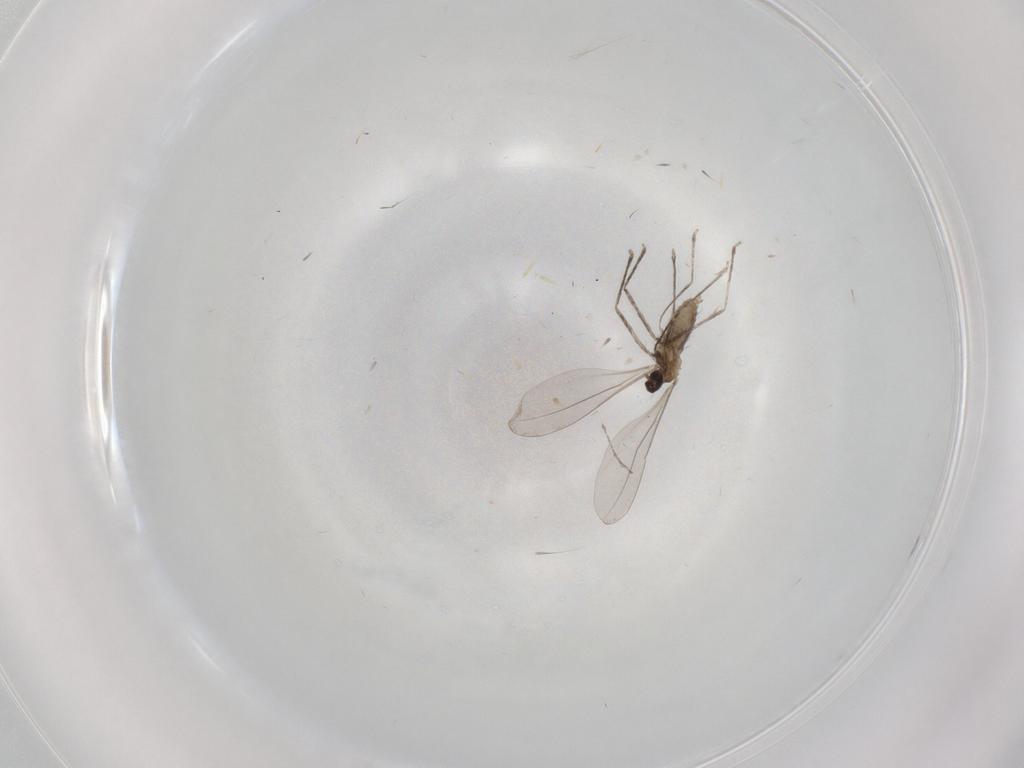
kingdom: Animalia
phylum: Arthropoda
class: Insecta
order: Diptera
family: Cecidomyiidae
